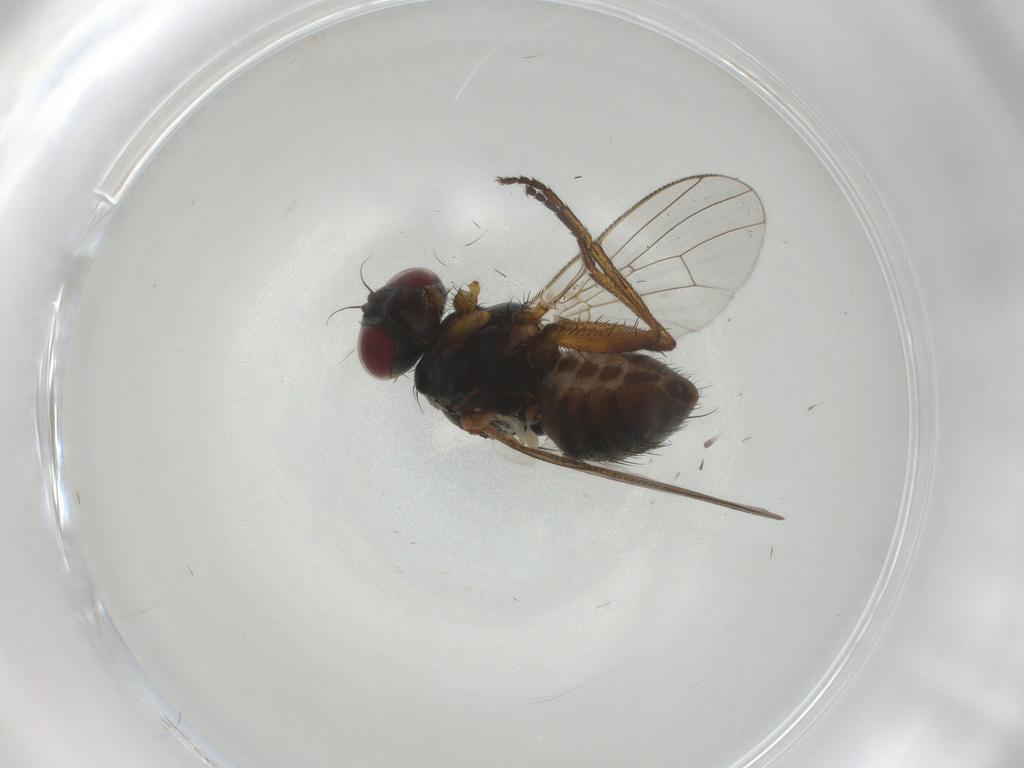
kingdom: Animalia
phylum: Arthropoda
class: Insecta
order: Diptera
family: Muscidae
